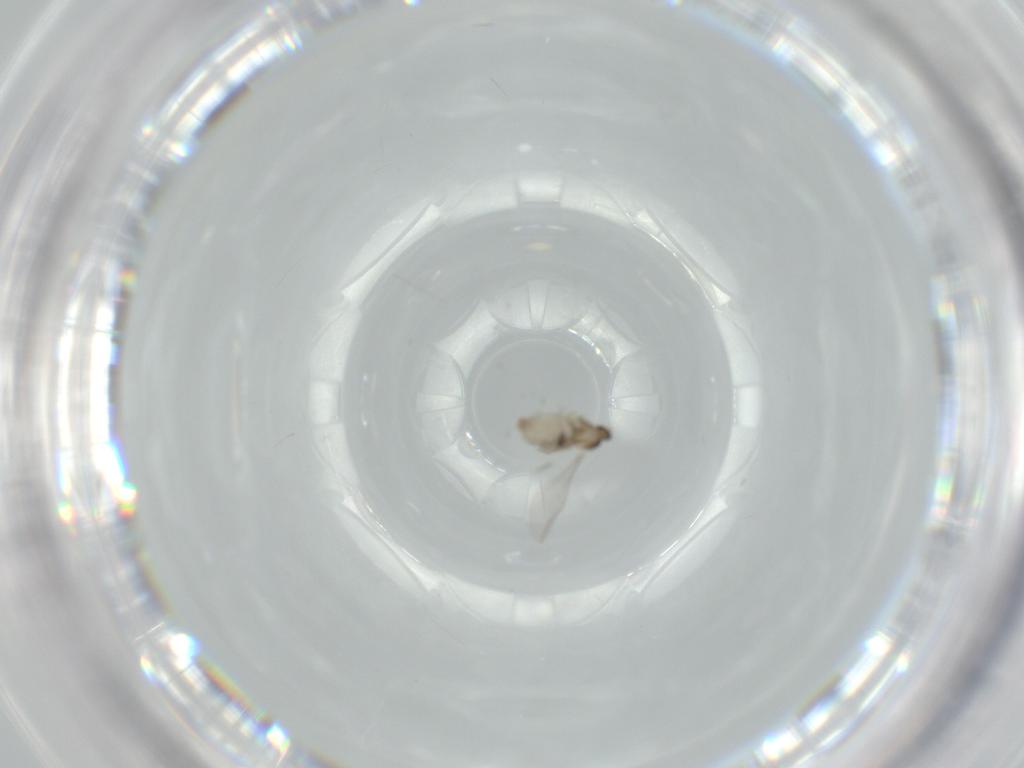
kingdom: Animalia
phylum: Arthropoda
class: Insecta
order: Diptera
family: Cecidomyiidae
